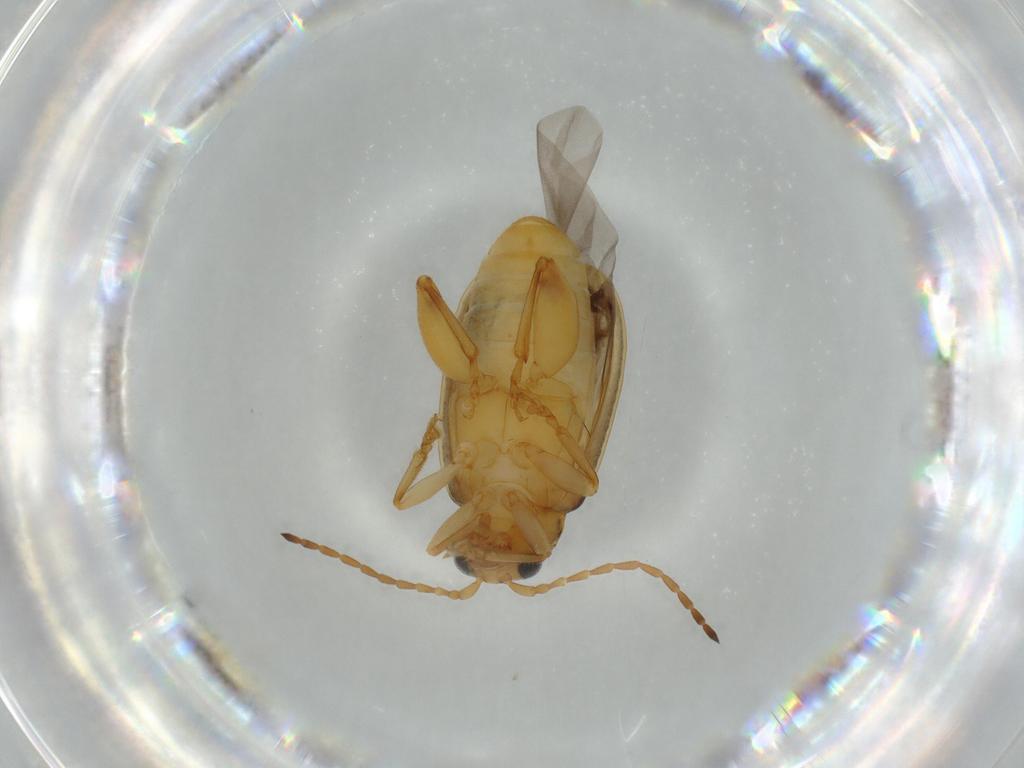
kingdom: Animalia
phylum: Arthropoda
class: Insecta
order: Coleoptera
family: Chrysomelidae
